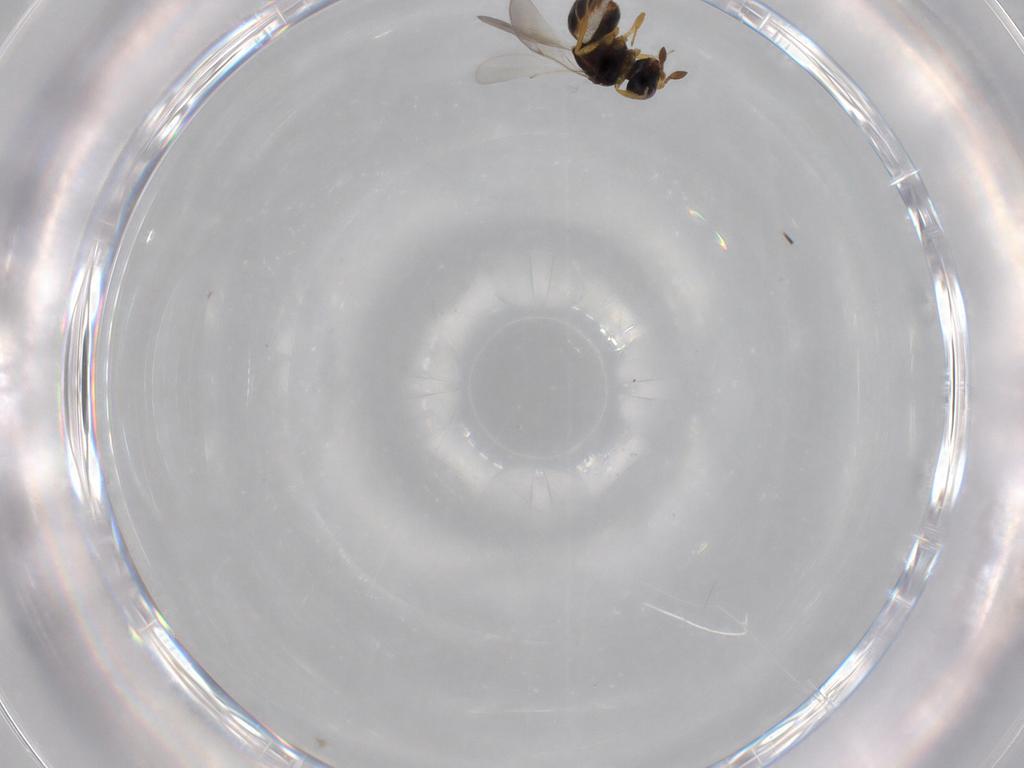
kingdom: Animalia
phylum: Arthropoda
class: Insecta
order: Hymenoptera
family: Scelionidae
